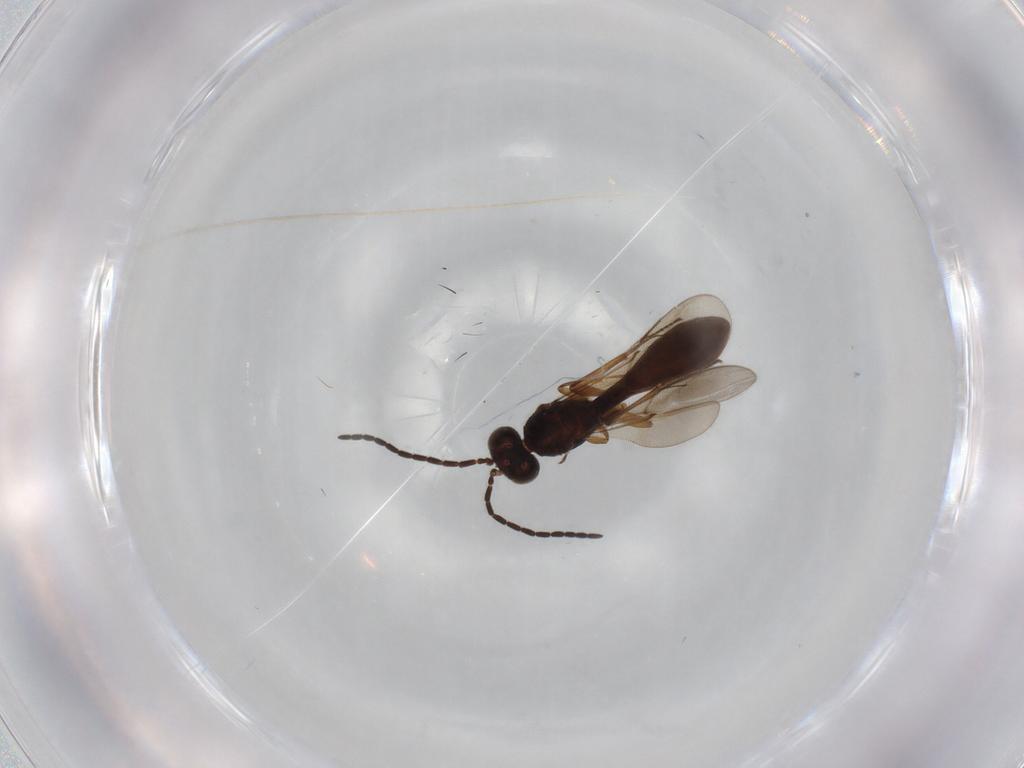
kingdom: Animalia
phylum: Arthropoda
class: Insecta
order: Hymenoptera
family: Scelionidae
